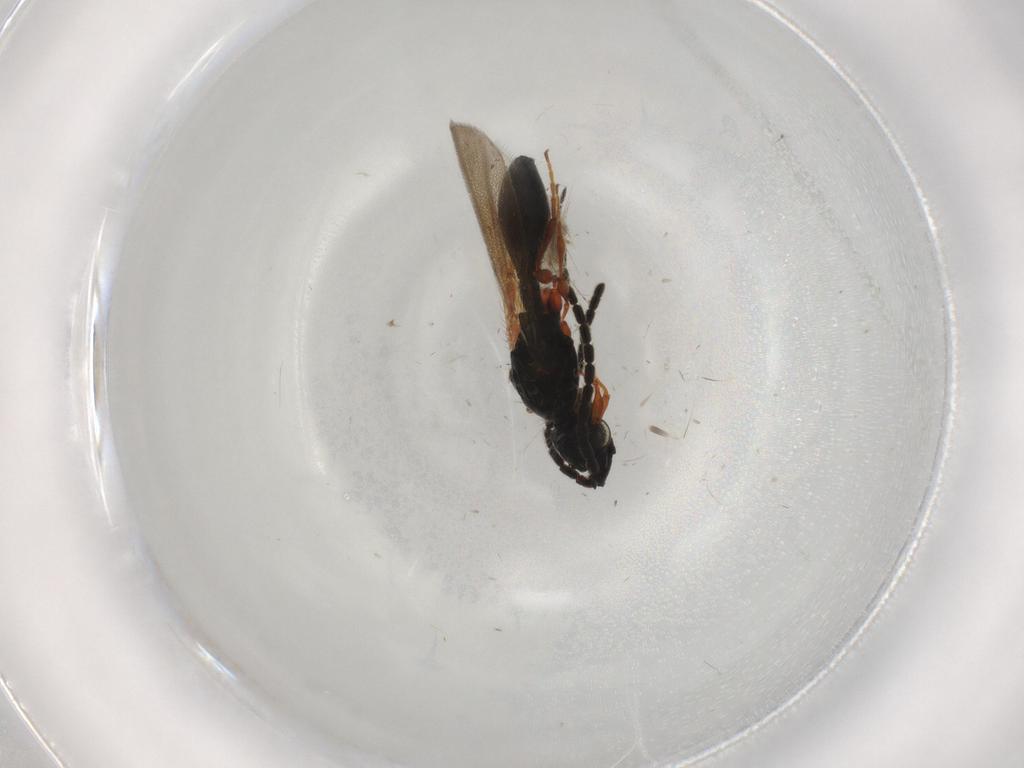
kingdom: Animalia
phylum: Arthropoda
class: Insecta
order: Hymenoptera
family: Diapriidae
